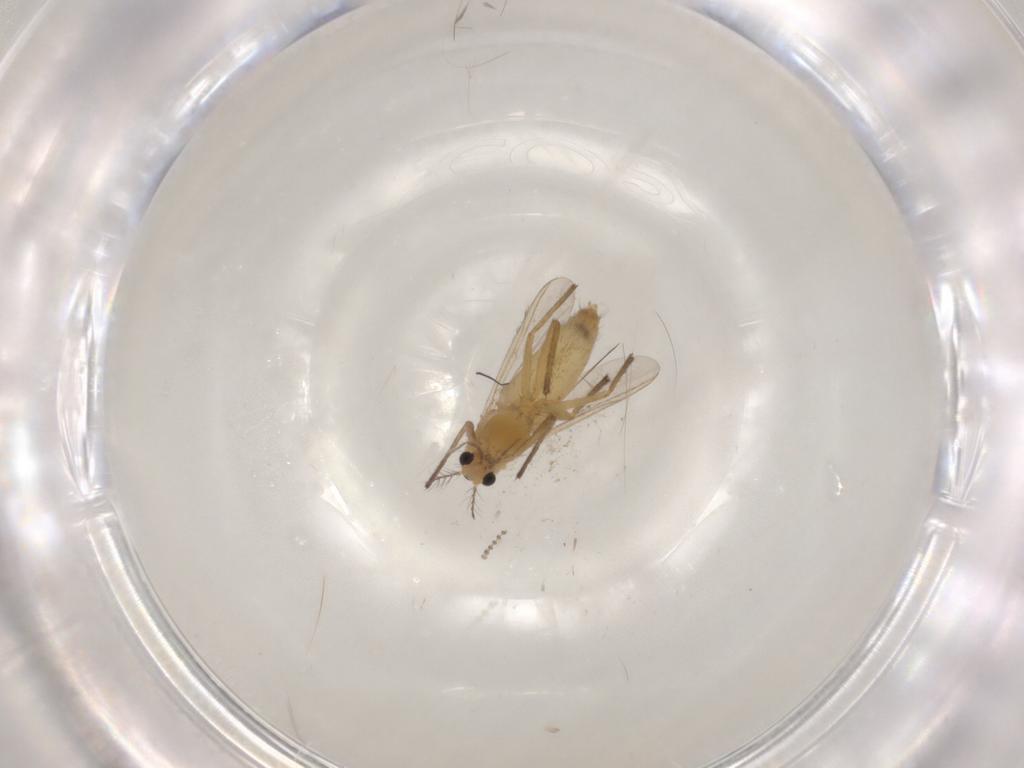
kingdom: Animalia
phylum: Arthropoda
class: Insecta
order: Diptera
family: Chironomidae
